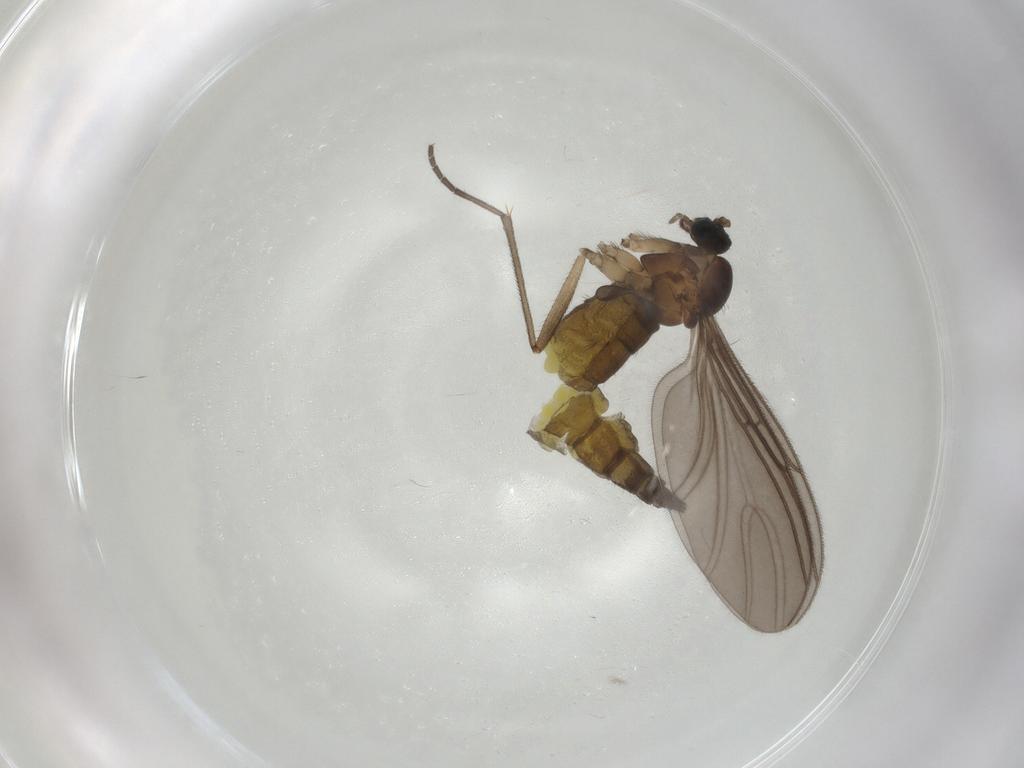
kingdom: Animalia
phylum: Arthropoda
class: Insecta
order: Diptera
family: Sciaridae
